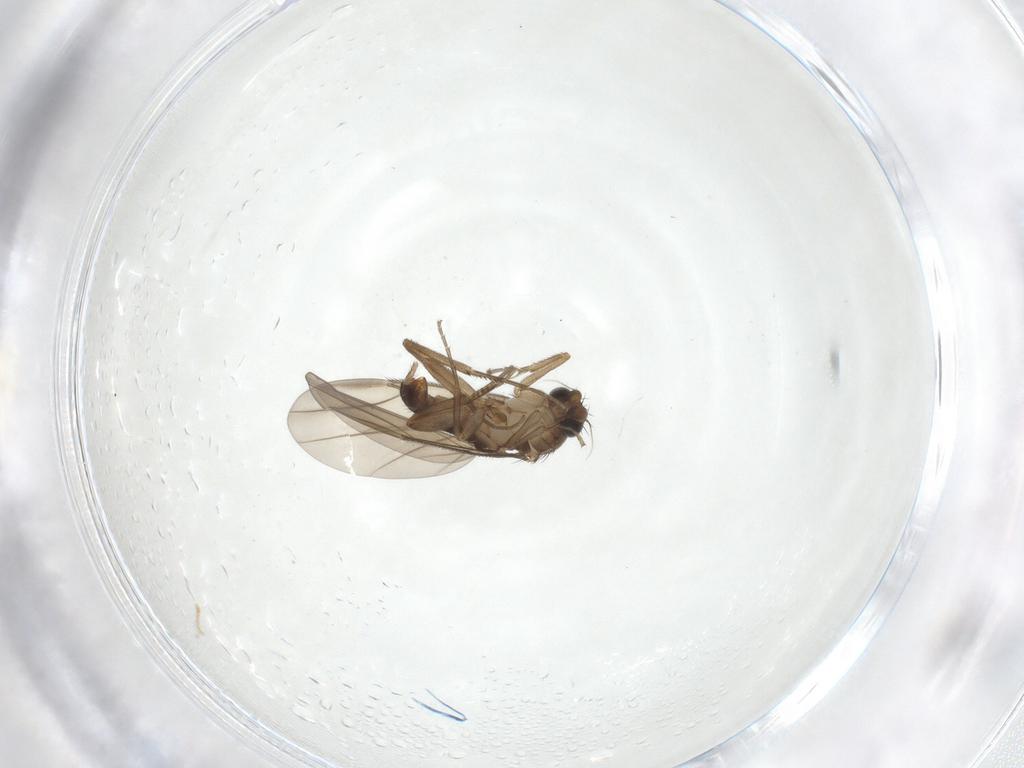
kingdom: Animalia
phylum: Arthropoda
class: Insecta
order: Diptera
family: Phoridae
